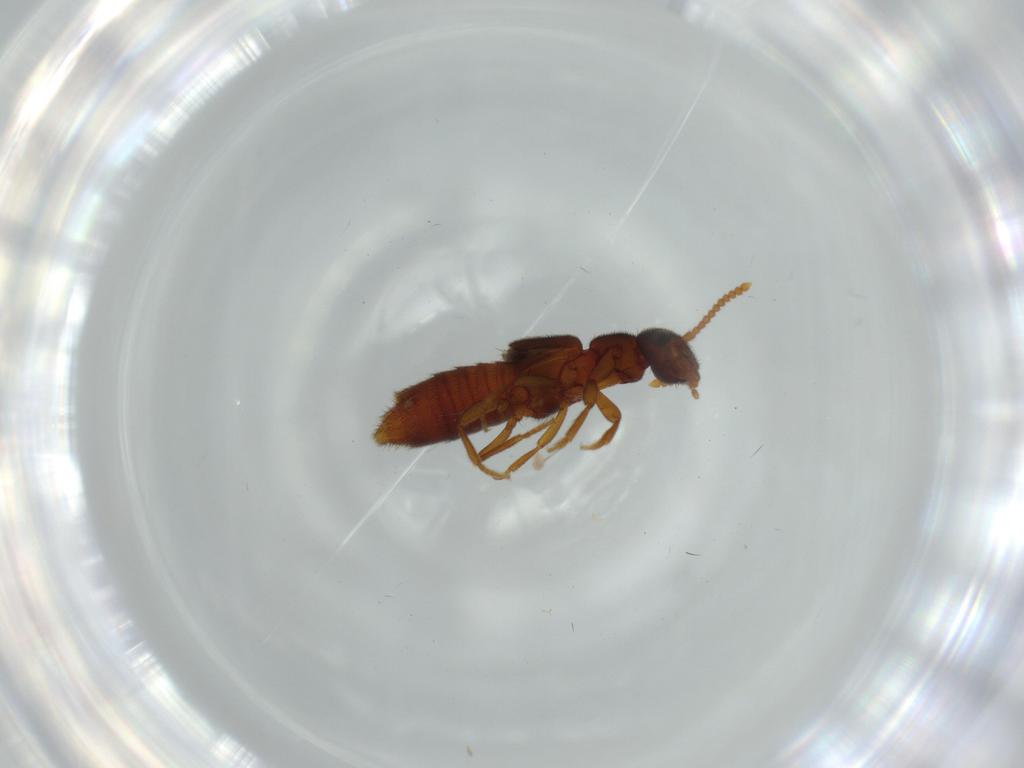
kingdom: Animalia
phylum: Arthropoda
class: Insecta
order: Coleoptera
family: Staphylinidae
